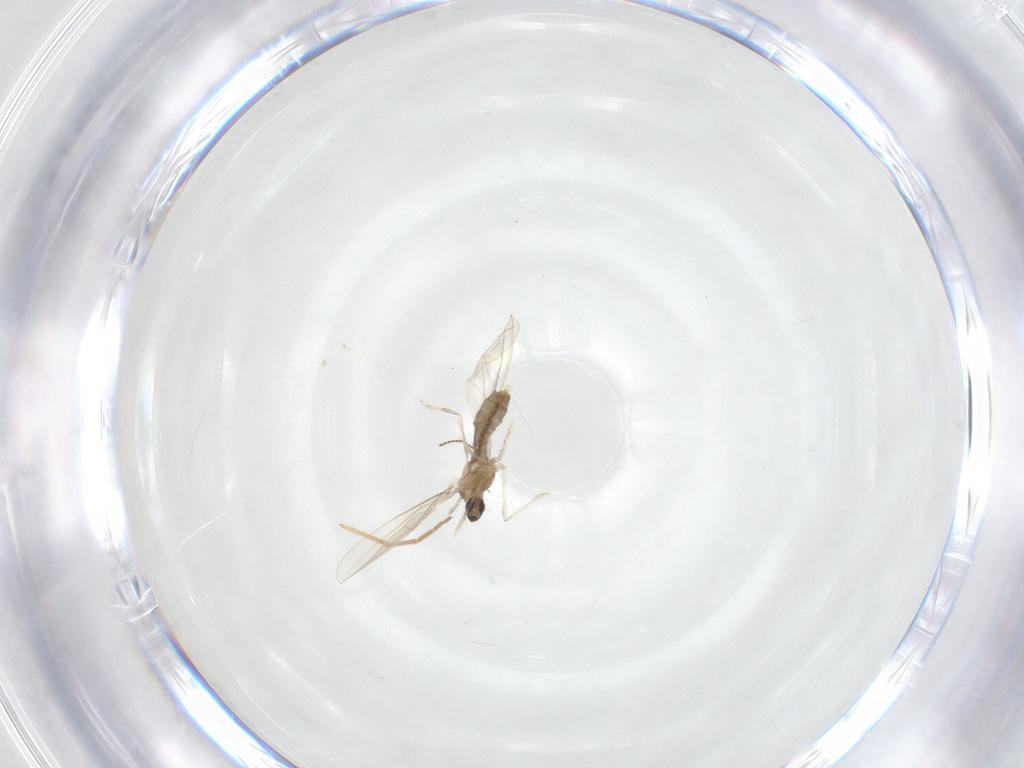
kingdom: Animalia
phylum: Arthropoda
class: Insecta
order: Diptera
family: Cecidomyiidae
